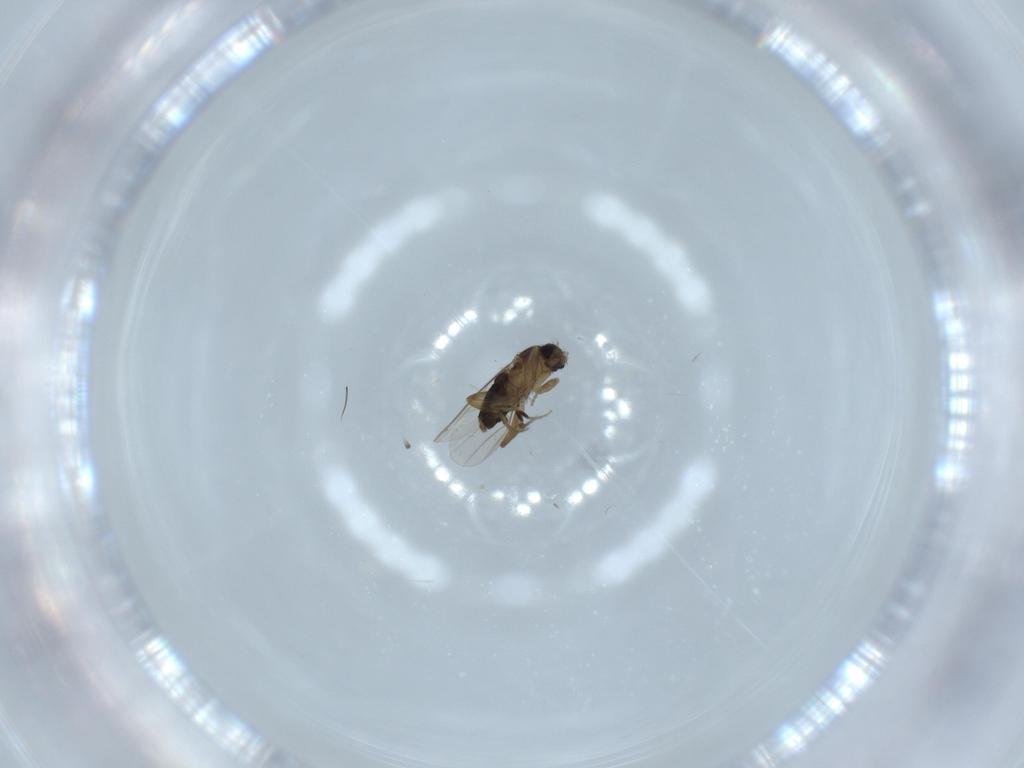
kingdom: Animalia
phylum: Arthropoda
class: Insecta
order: Diptera
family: Phoridae
